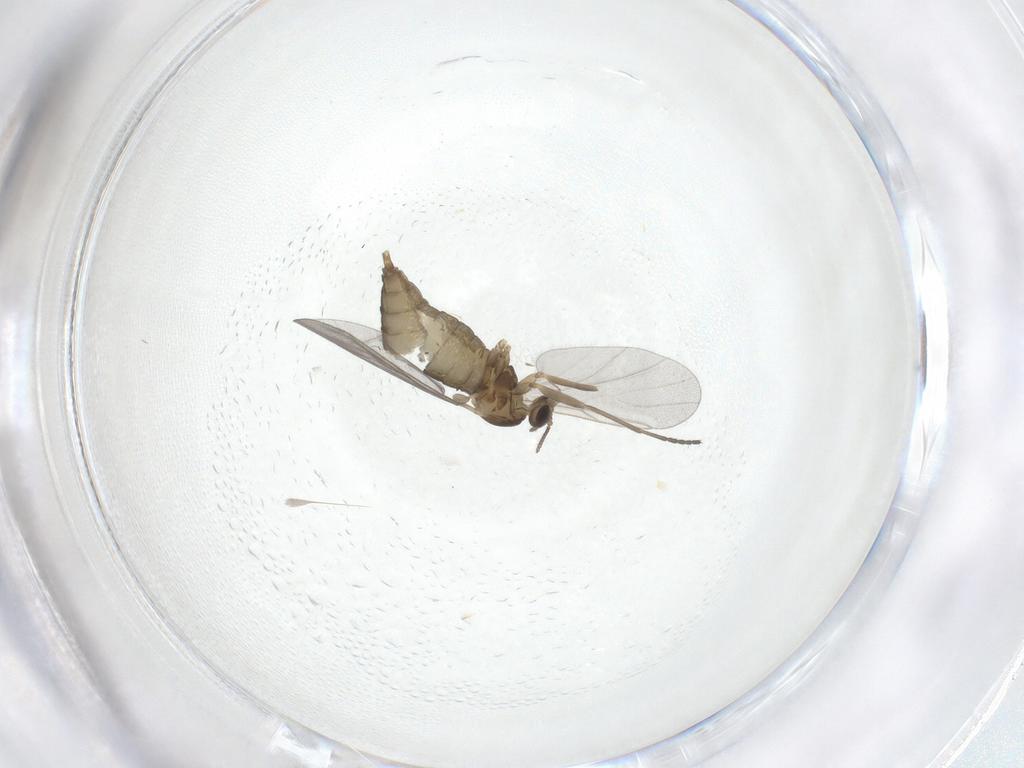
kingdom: Animalia
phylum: Arthropoda
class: Insecta
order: Diptera
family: Cecidomyiidae
